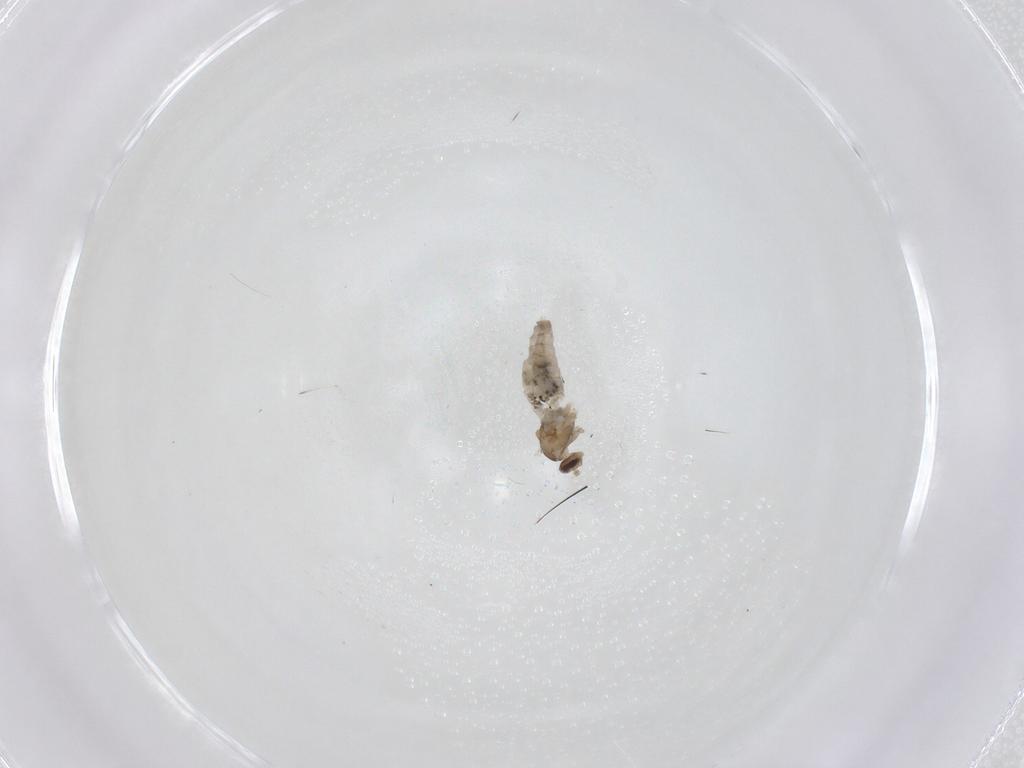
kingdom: Animalia
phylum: Arthropoda
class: Insecta
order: Diptera
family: Cecidomyiidae
